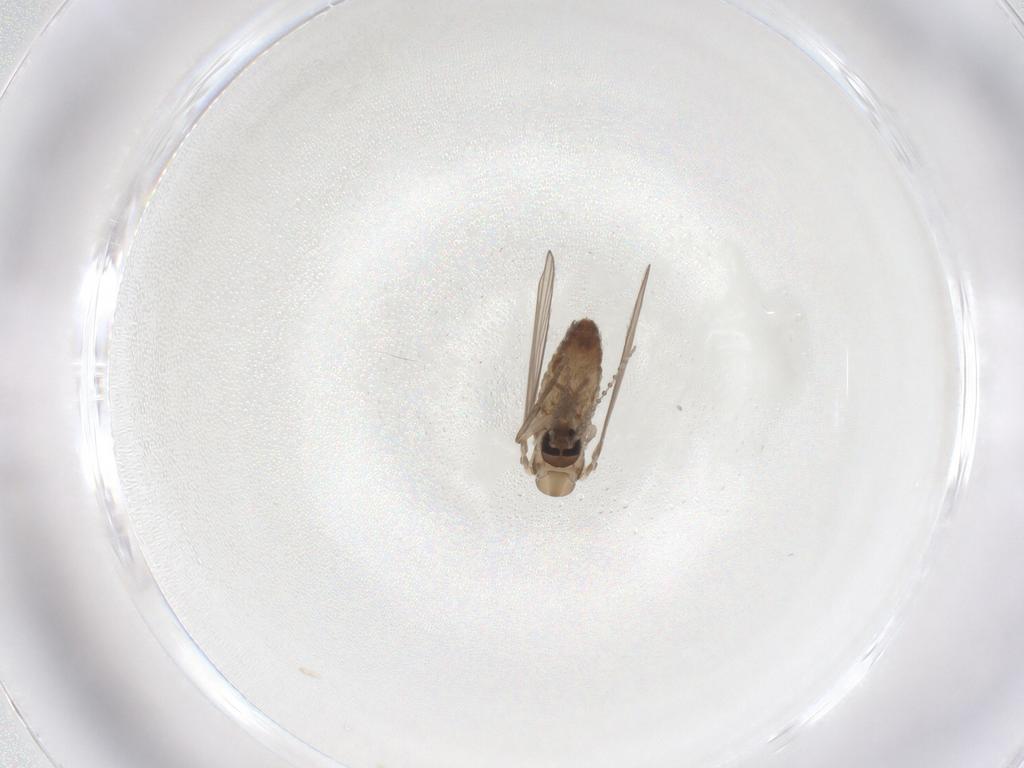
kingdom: Animalia
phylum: Arthropoda
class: Insecta
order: Diptera
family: Psychodidae
